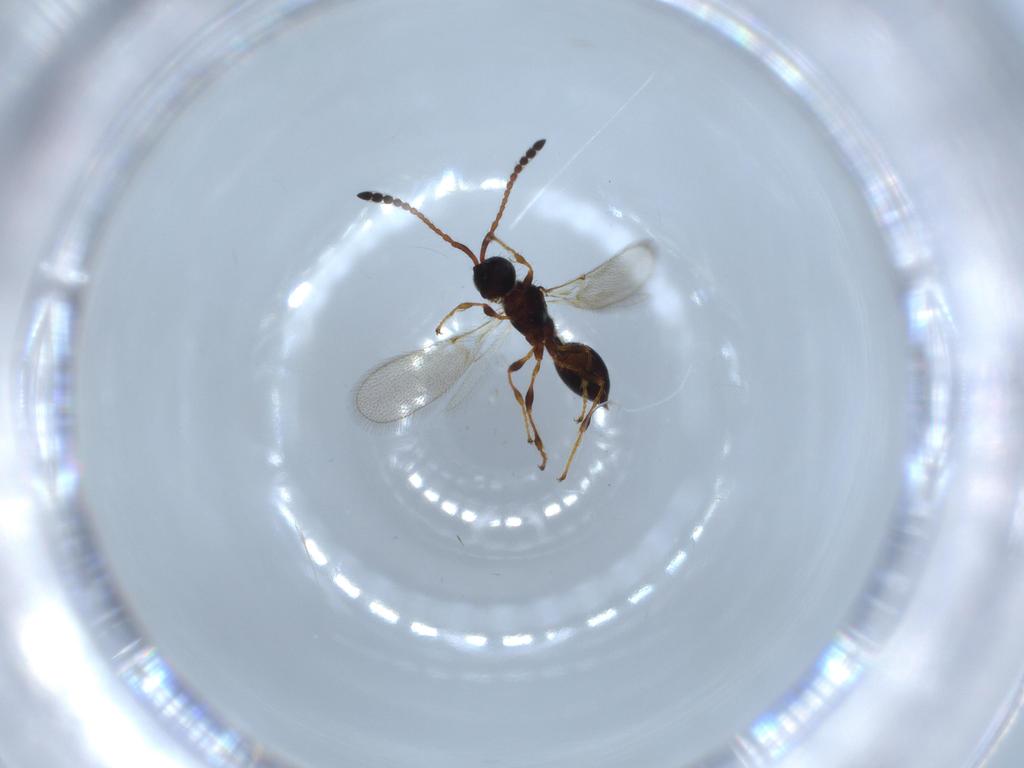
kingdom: Animalia
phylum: Arthropoda
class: Insecta
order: Hymenoptera
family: Diapriidae
